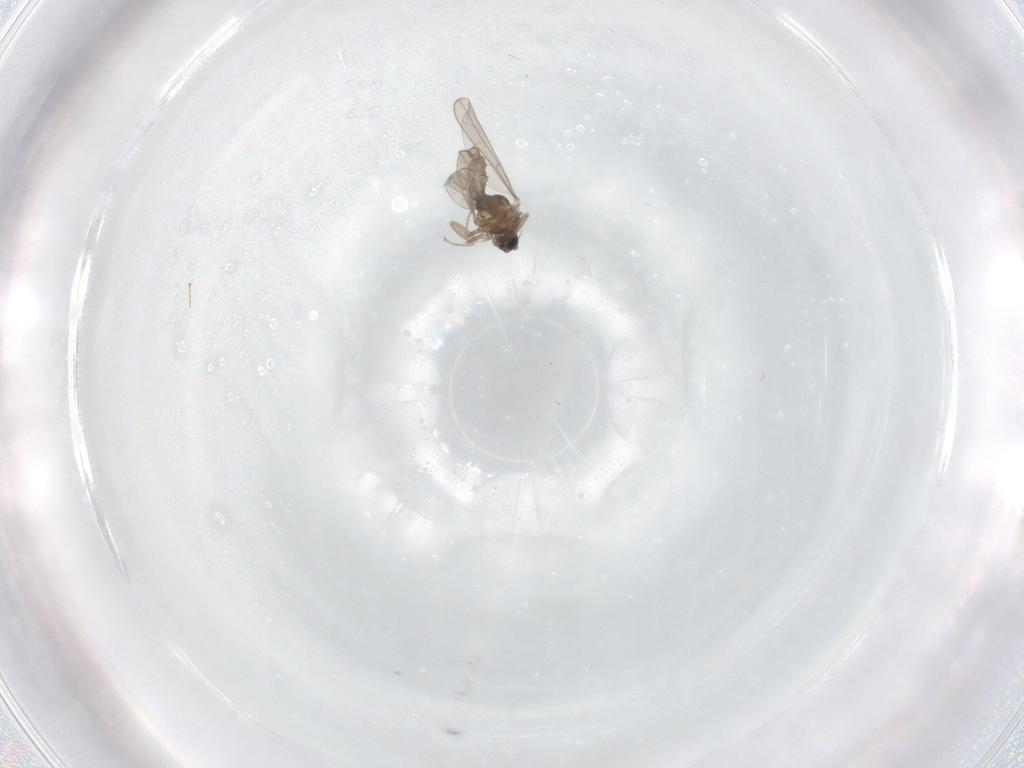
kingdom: Animalia
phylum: Arthropoda
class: Insecta
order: Diptera
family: Cecidomyiidae
